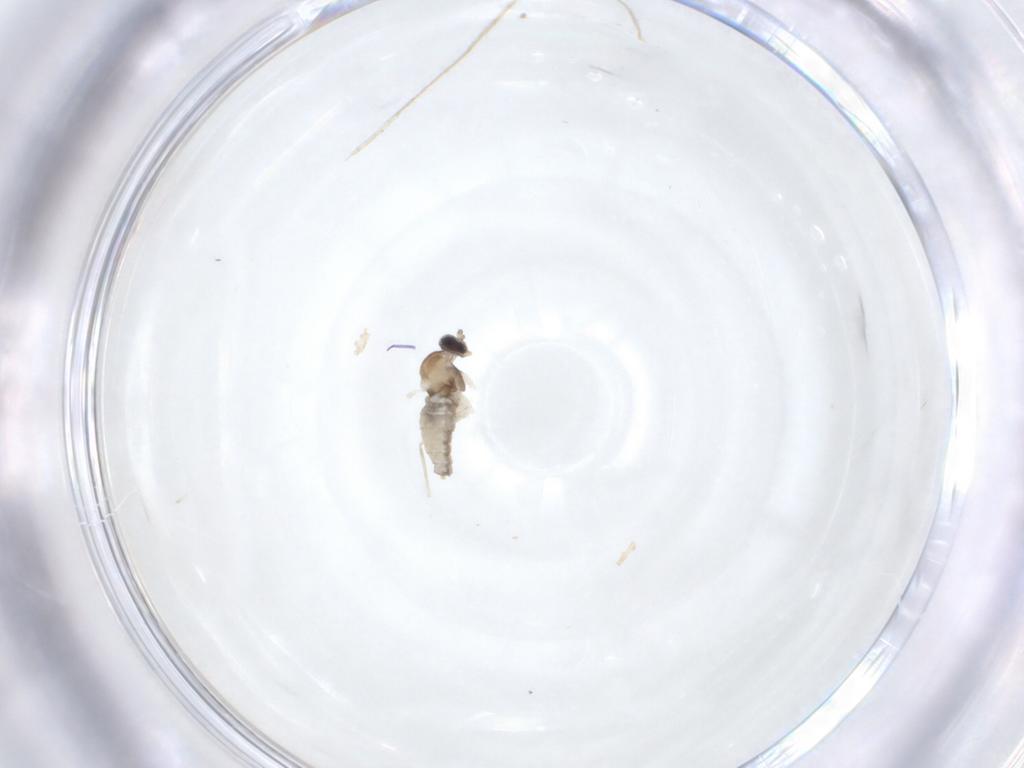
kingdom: Animalia
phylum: Arthropoda
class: Insecta
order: Diptera
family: Cecidomyiidae
